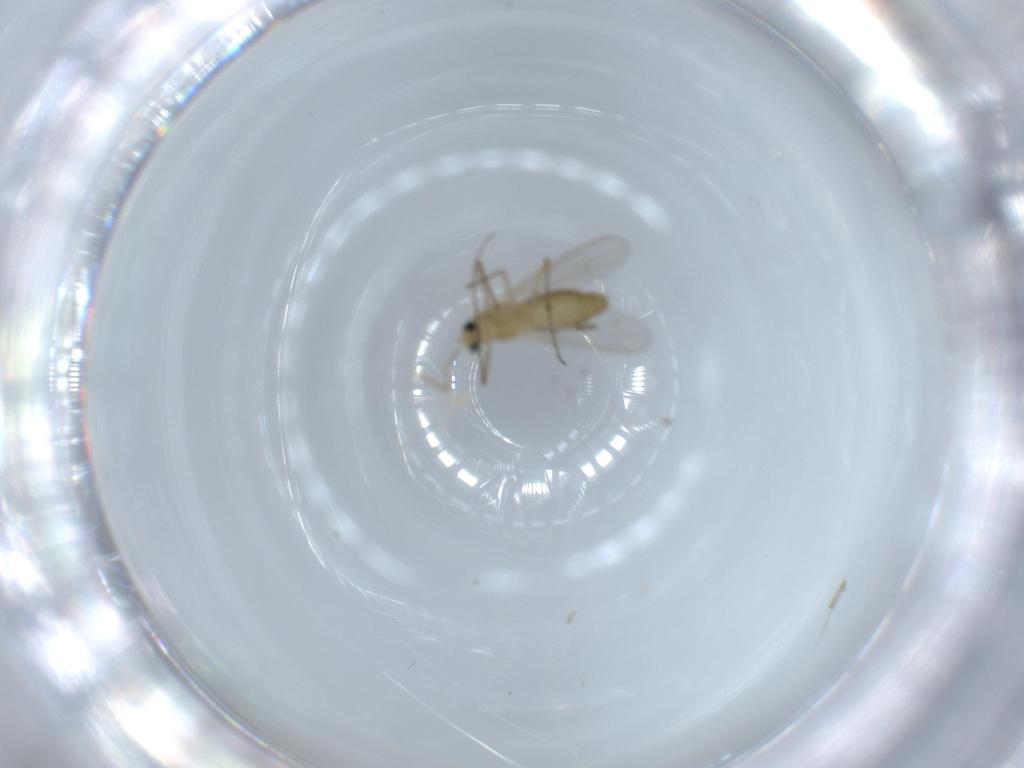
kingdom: Animalia
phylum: Arthropoda
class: Insecta
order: Diptera
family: Chironomidae
